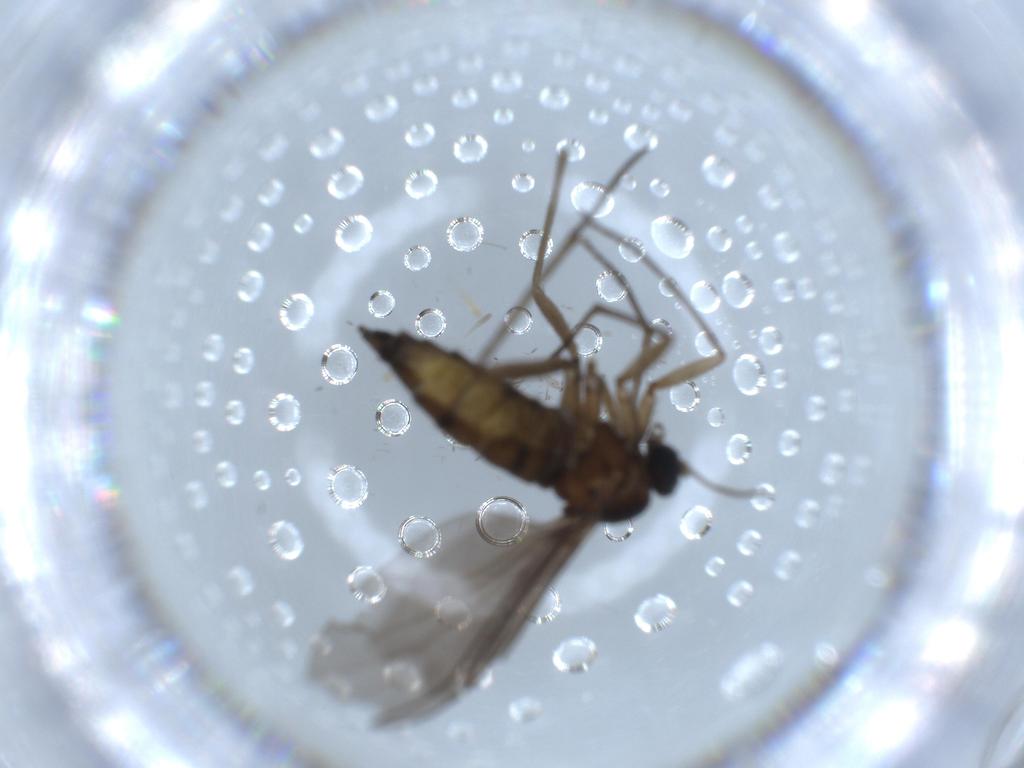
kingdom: Animalia
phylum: Arthropoda
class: Insecta
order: Diptera
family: Sciaridae
